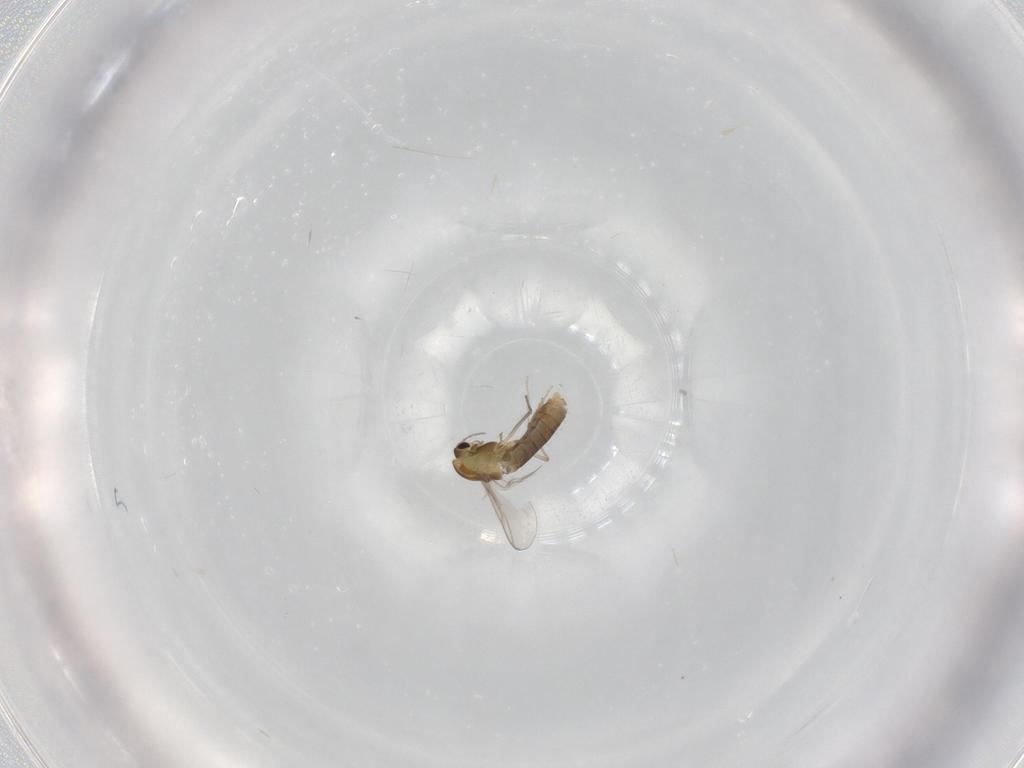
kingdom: Animalia
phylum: Arthropoda
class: Insecta
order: Diptera
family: Chironomidae
